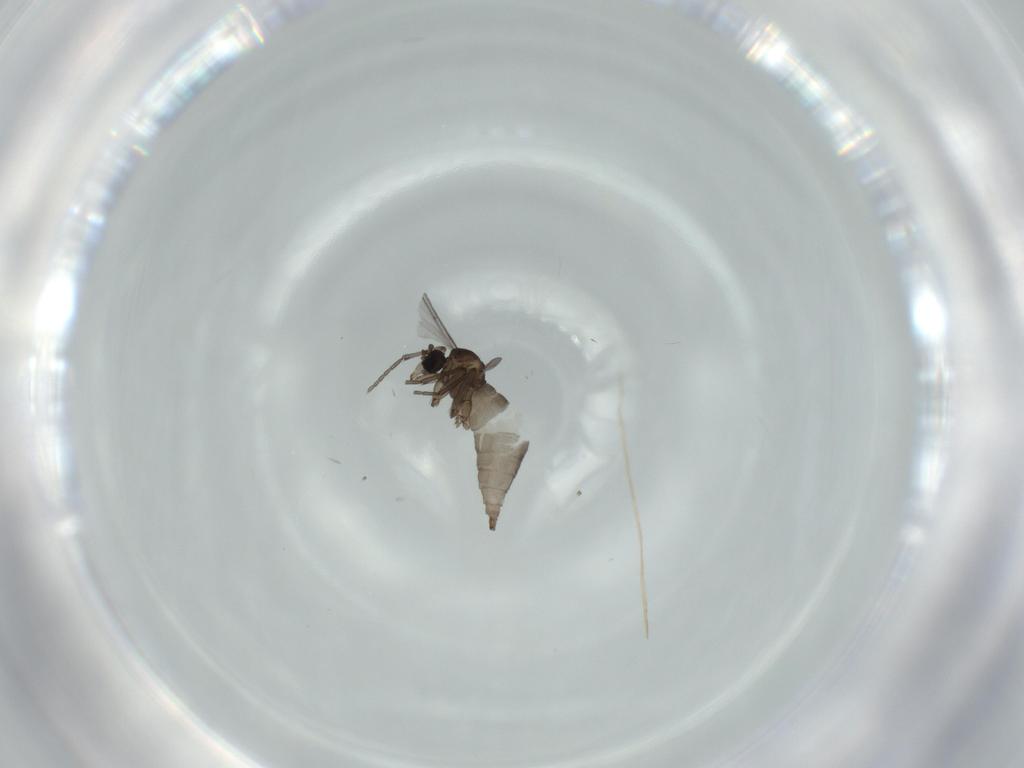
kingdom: Animalia
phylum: Arthropoda
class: Insecta
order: Diptera
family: Sciaridae
